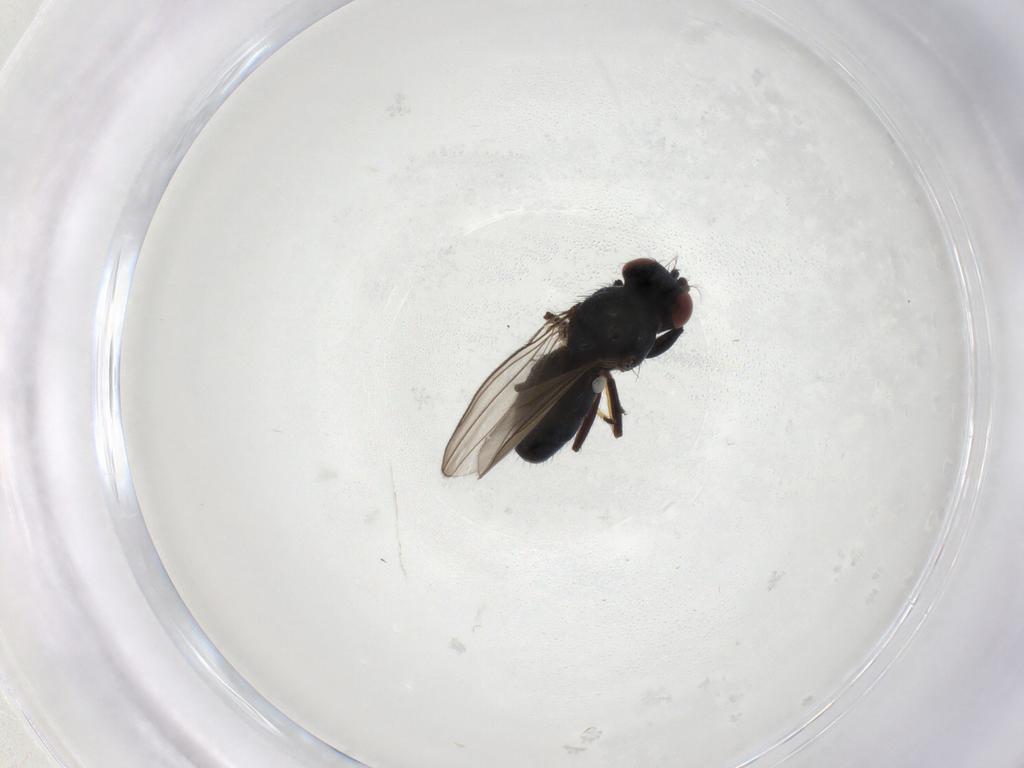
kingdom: Animalia
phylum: Arthropoda
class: Insecta
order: Diptera
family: Ephydridae
